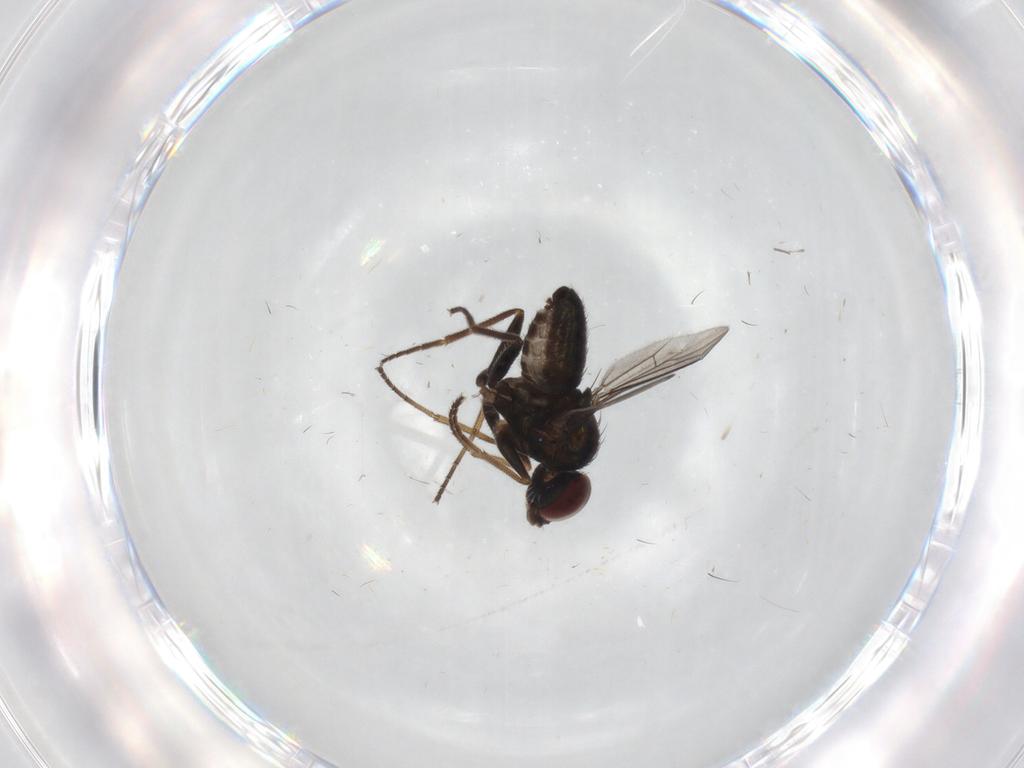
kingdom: Animalia
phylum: Arthropoda
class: Insecta
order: Diptera
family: Dolichopodidae
